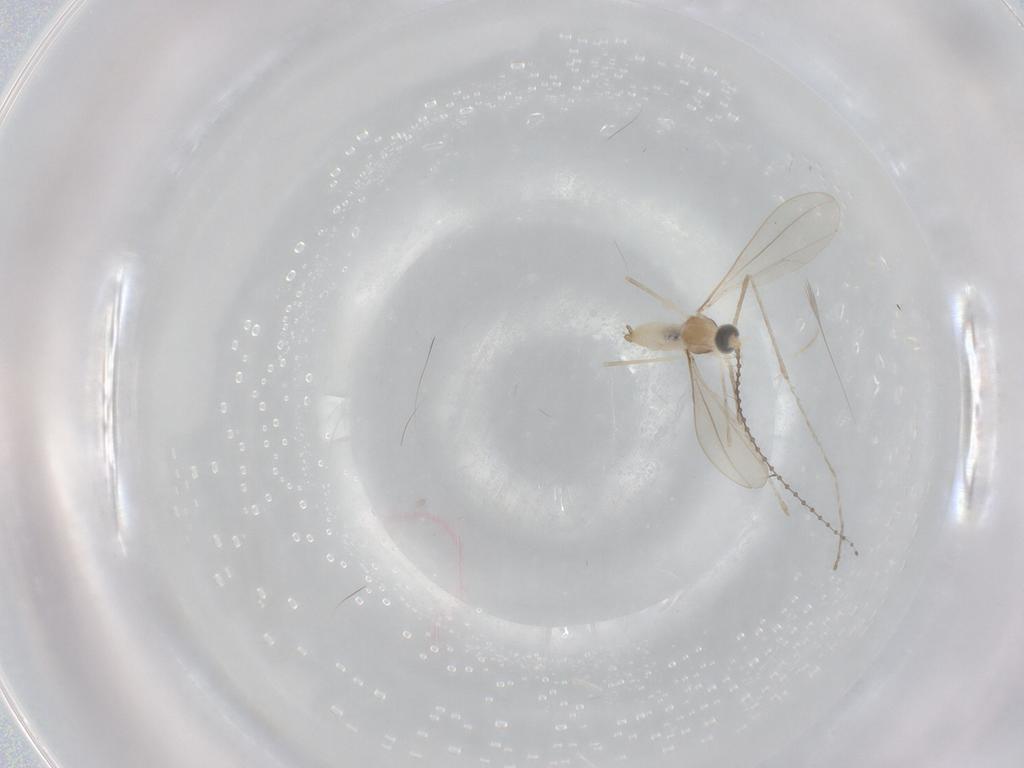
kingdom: Animalia
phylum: Arthropoda
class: Insecta
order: Diptera
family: Cecidomyiidae
